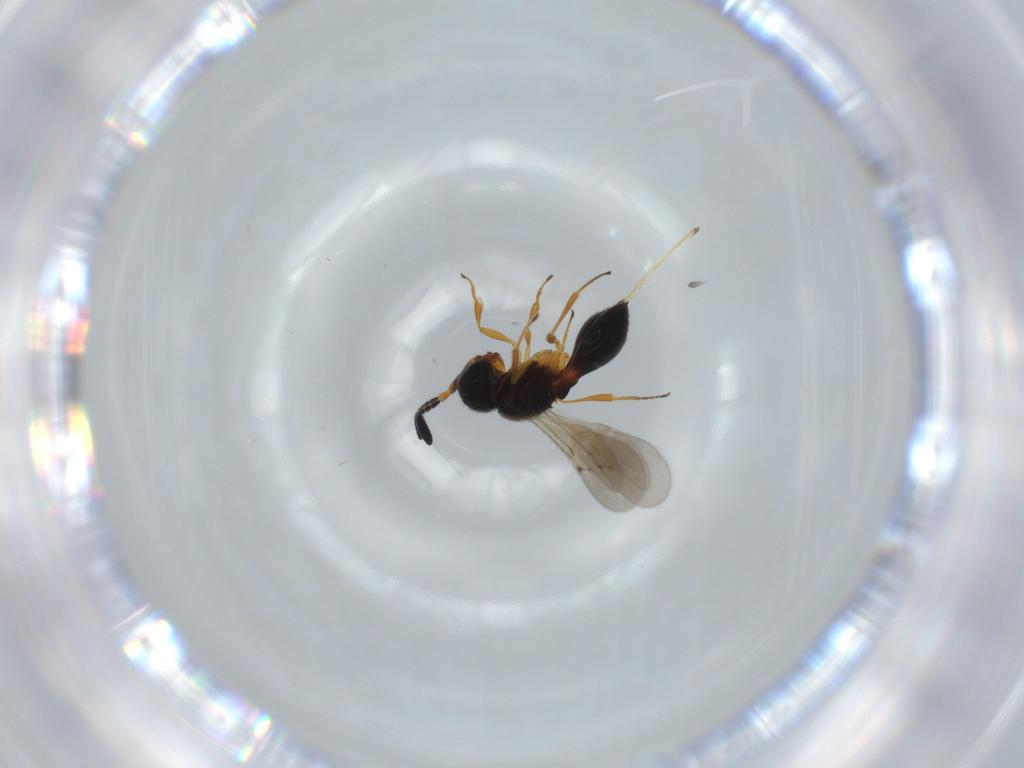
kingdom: Animalia
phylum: Arthropoda
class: Insecta
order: Hymenoptera
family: Scelionidae
